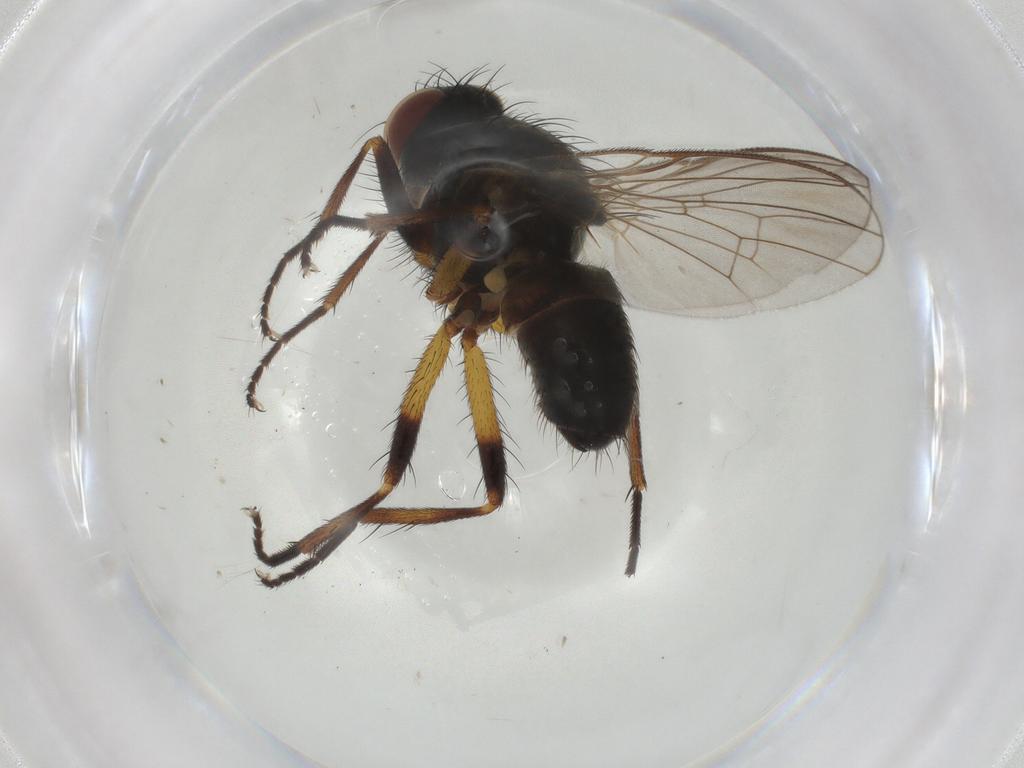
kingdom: Animalia
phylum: Arthropoda
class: Insecta
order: Diptera
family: Muscidae
